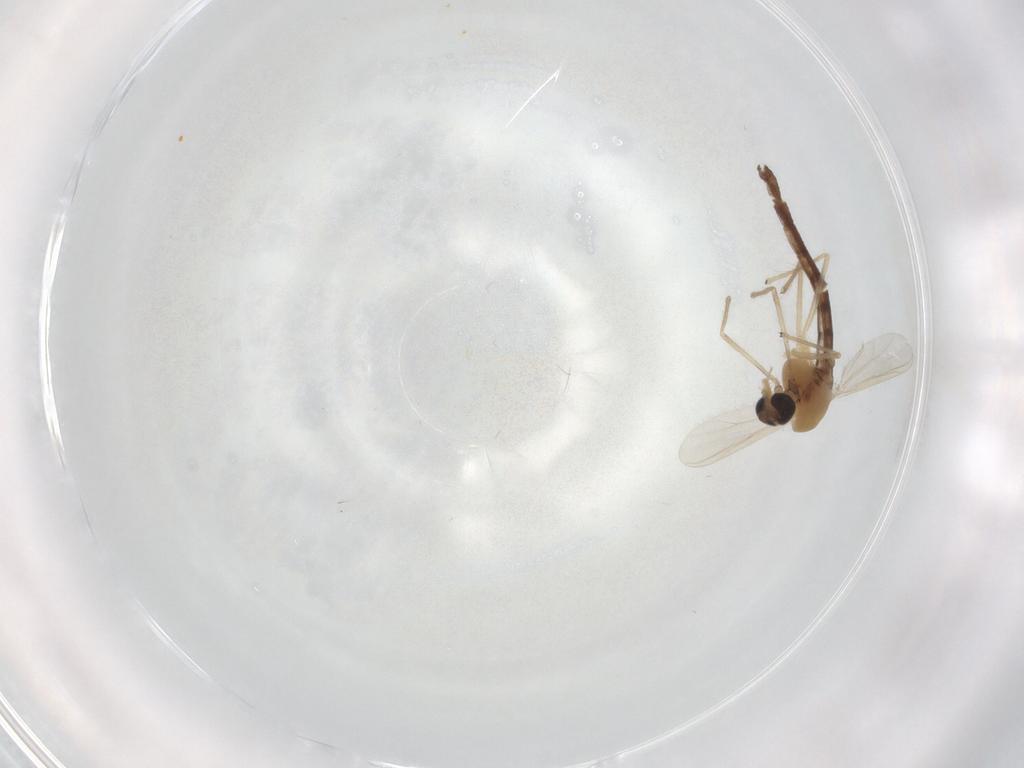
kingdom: Animalia
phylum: Arthropoda
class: Insecta
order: Diptera
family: Chironomidae
